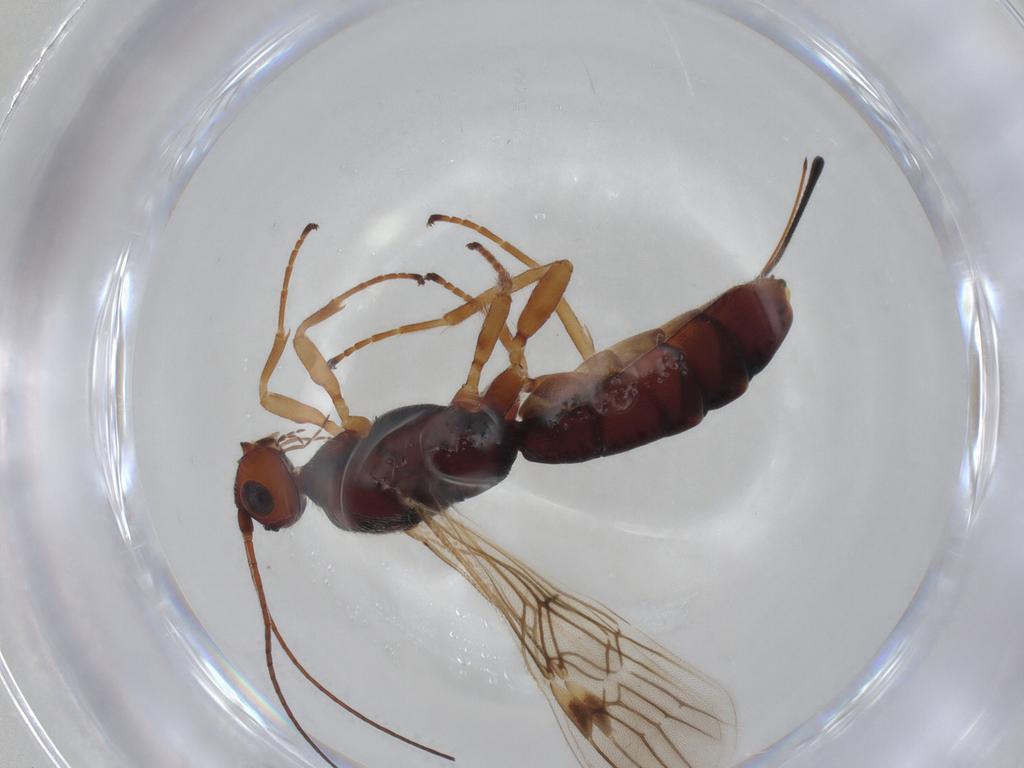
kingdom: Animalia
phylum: Arthropoda
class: Insecta
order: Hymenoptera
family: Braconidae
